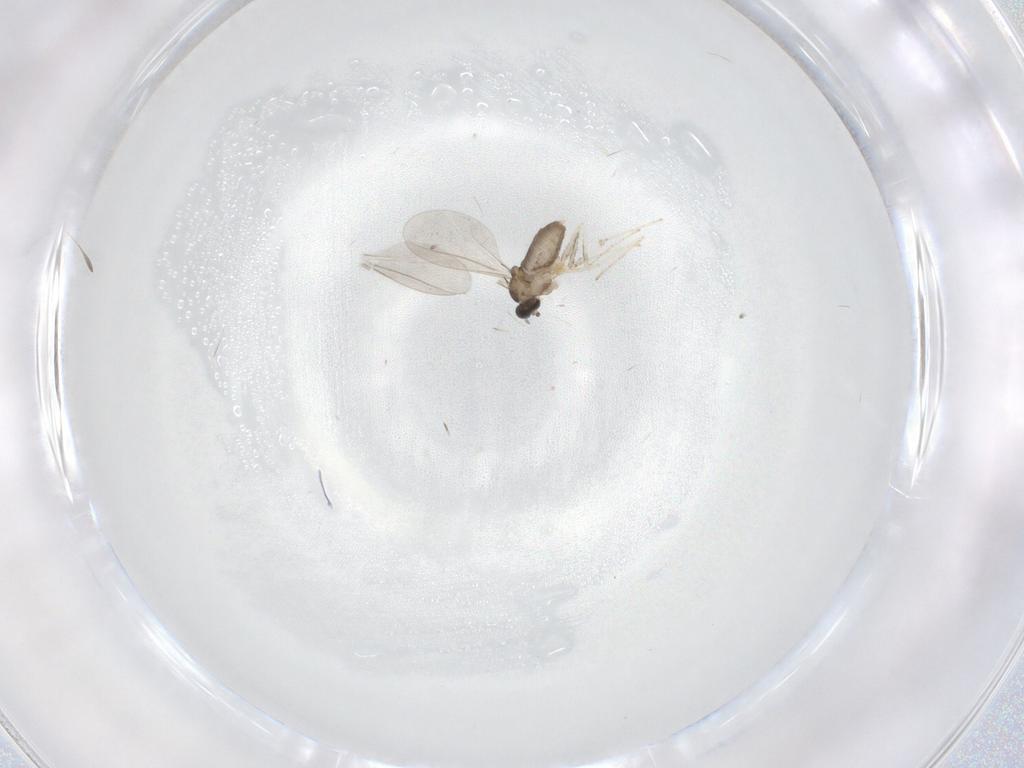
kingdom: Animalia
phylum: Arthropoda
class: Insecta
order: Diptera
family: Cecidomyiidae
